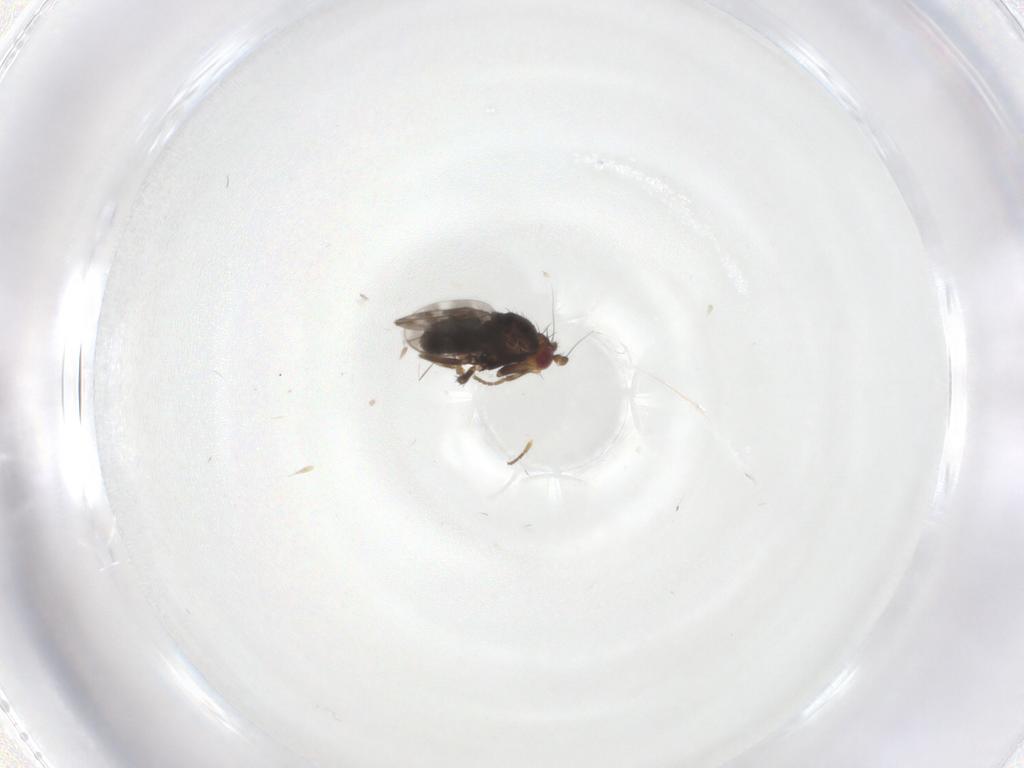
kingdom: Animalia
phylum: Arthropoda
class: Insecta
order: Diptera
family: Sphaeroceridae
